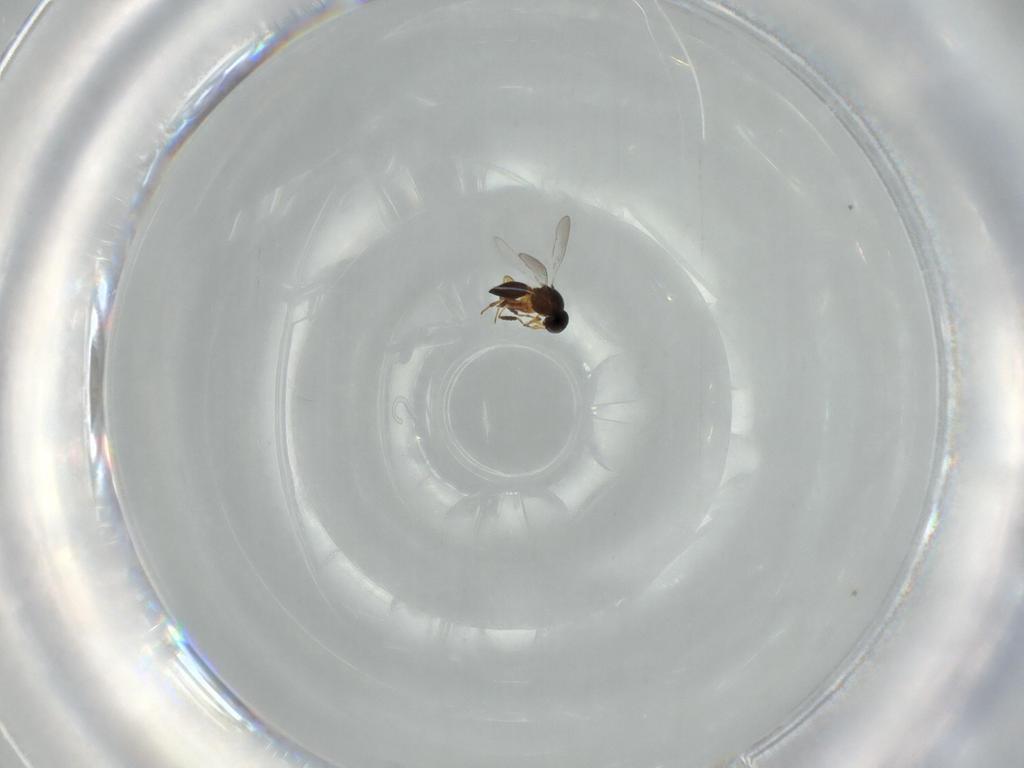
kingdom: Animalia
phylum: Arthropoda
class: Insecta
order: Hymenoptera
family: Platygastridae
